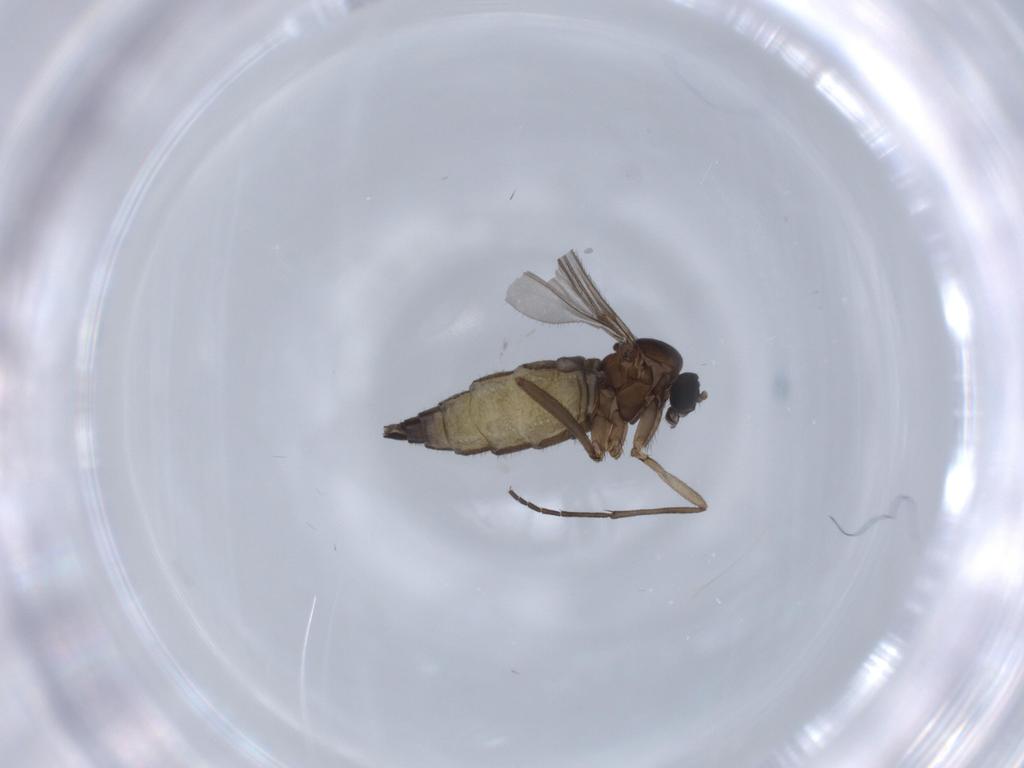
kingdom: Animalia
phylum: Arthropoda
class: Insecta
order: Diptera
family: Sciaridae
